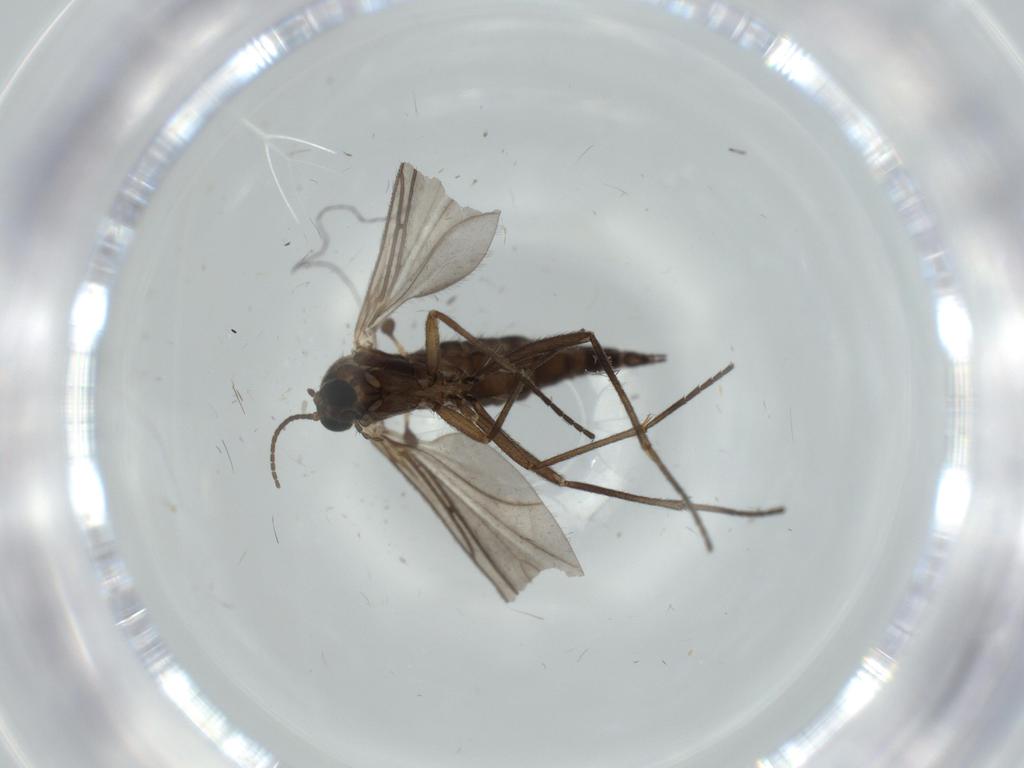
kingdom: Animalia
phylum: Arthropoda
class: Insecta
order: Diptera
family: Sciaridae
